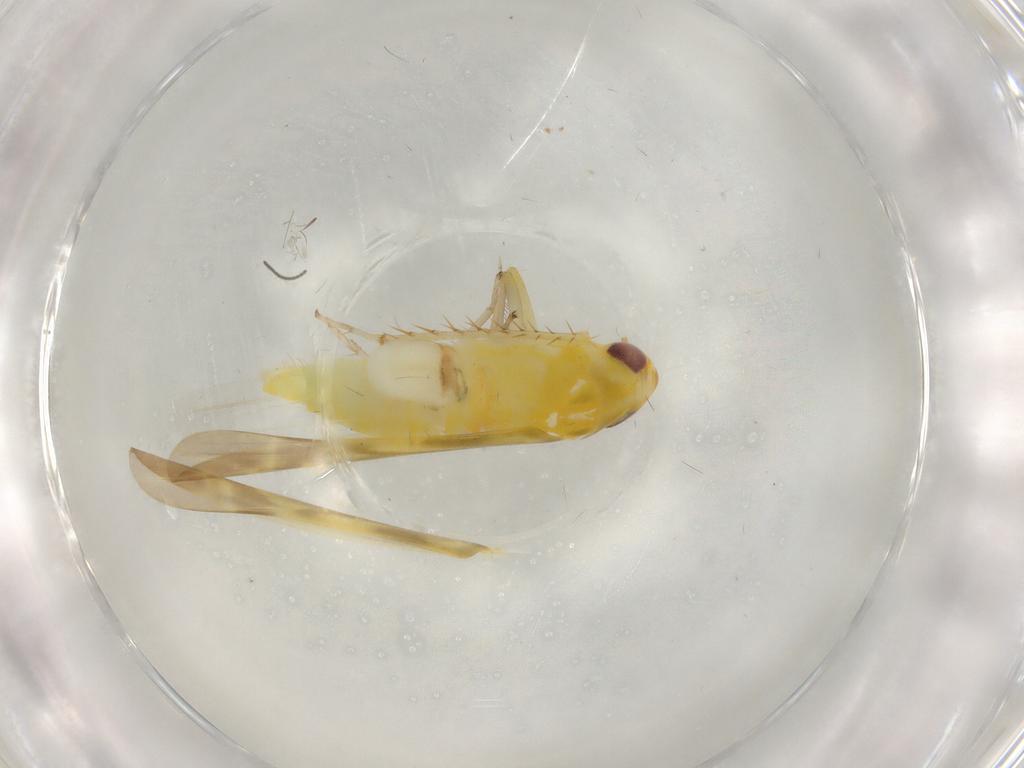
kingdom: Animalia
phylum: Arthropoda
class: Insecta
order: Hemiptera
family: Cicadellidae
